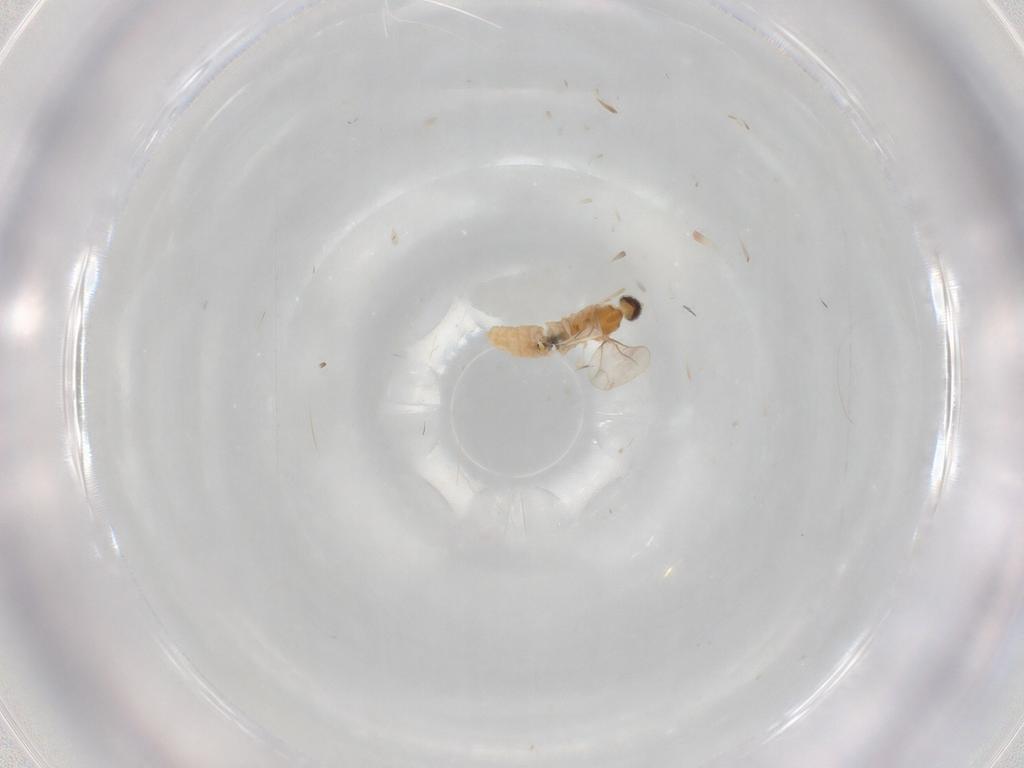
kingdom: Animalia
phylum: Arthropoda
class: Insecta
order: Diptera
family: Cecidomyiidae
